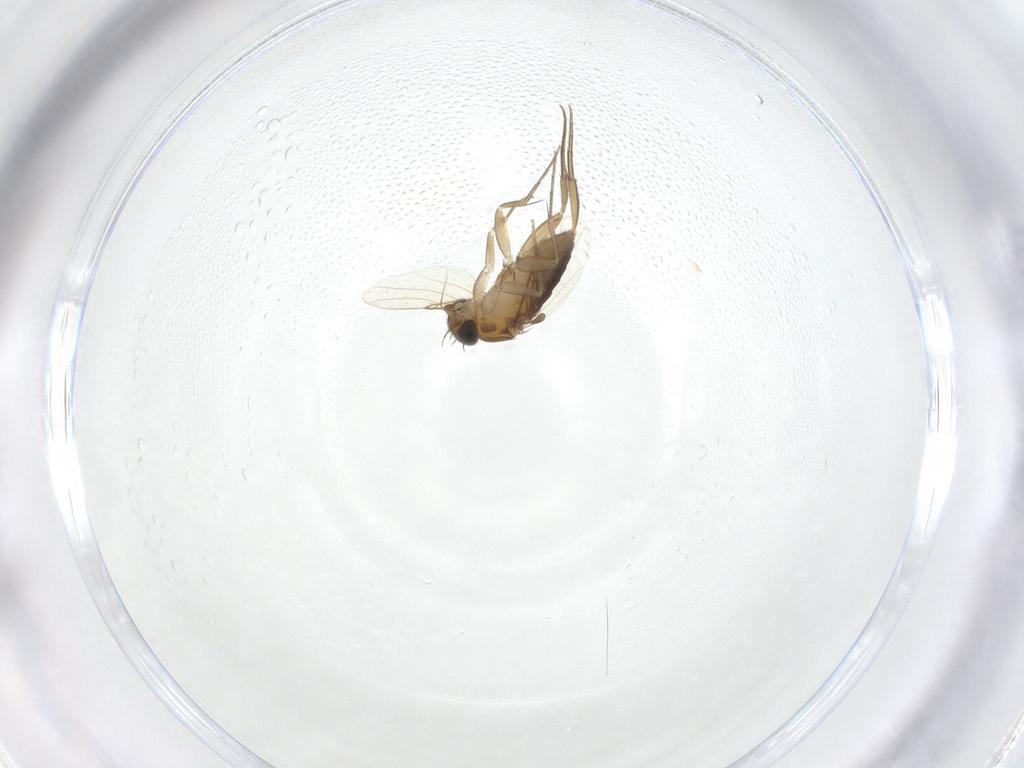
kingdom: Animalia
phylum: Arthropoda
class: Insecta
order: Diptera
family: Phoridae
